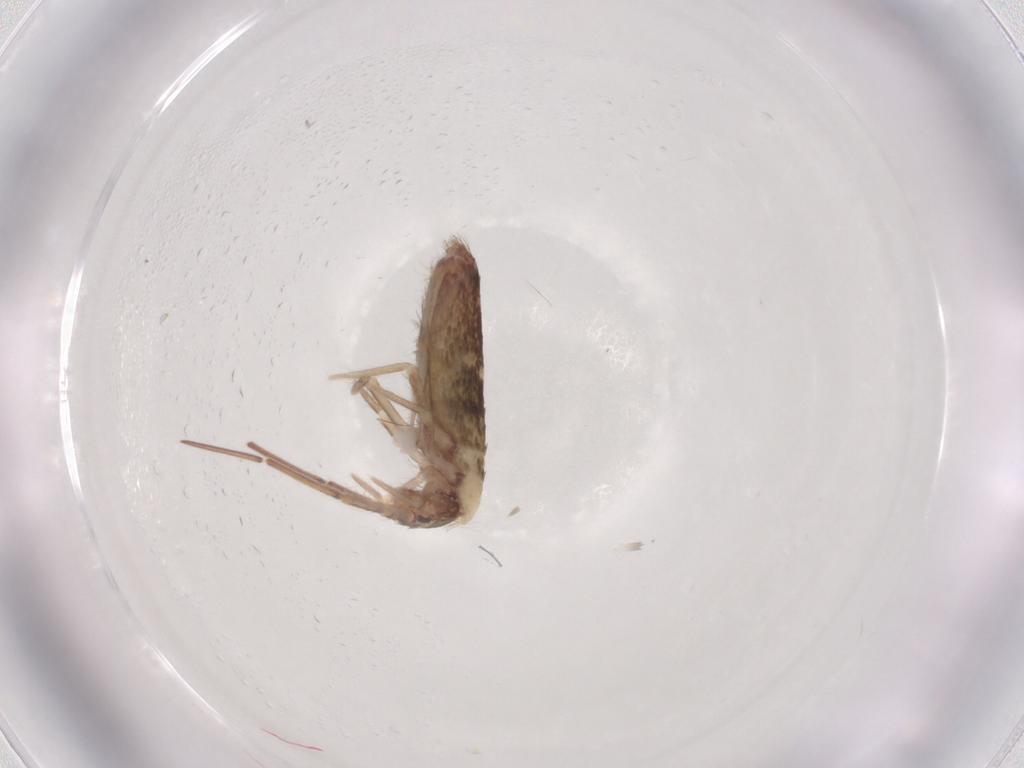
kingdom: Animalia
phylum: Arthropoda
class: Collembola
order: Entomobryomorpha
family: Entomobryidae
